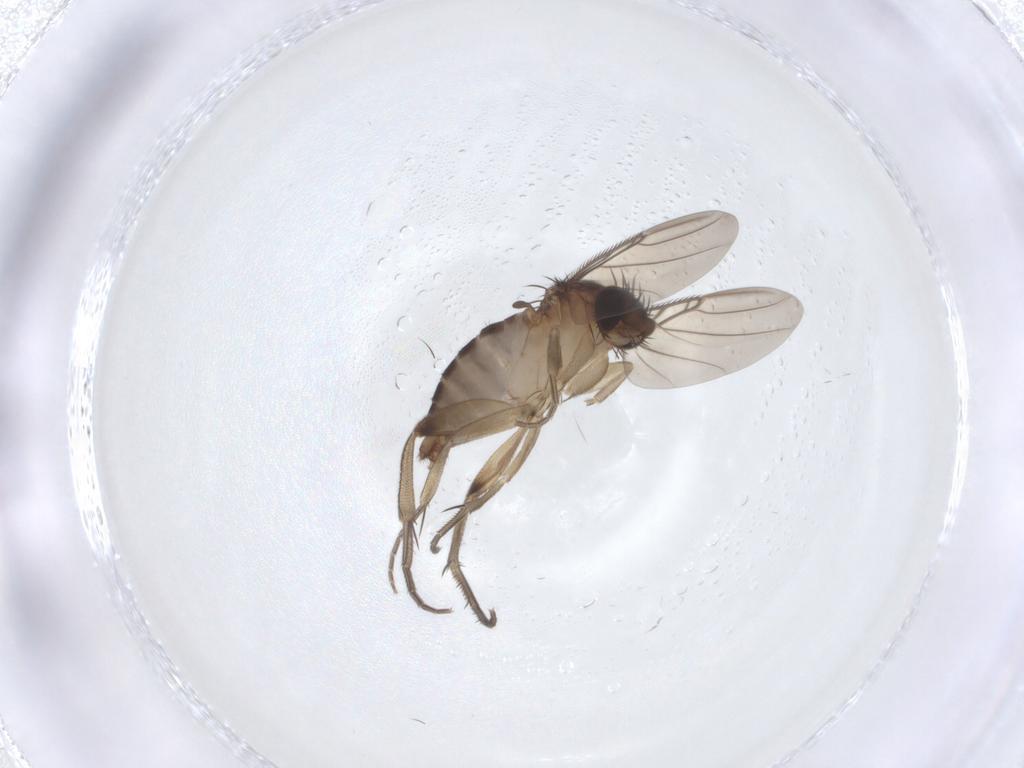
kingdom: Animalia
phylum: Arthropoda
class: Insecta
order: Diptera
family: Phoridae
